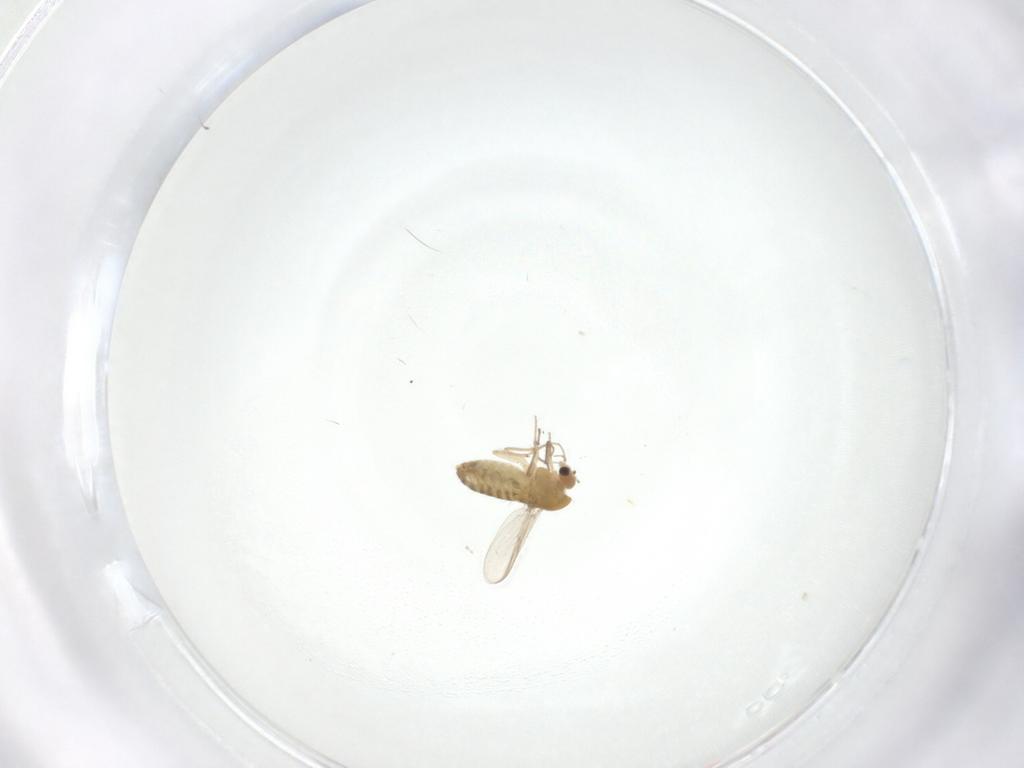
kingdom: Animalia
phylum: Arthropoda
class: Insecta
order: Diptera
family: Chironomidae
